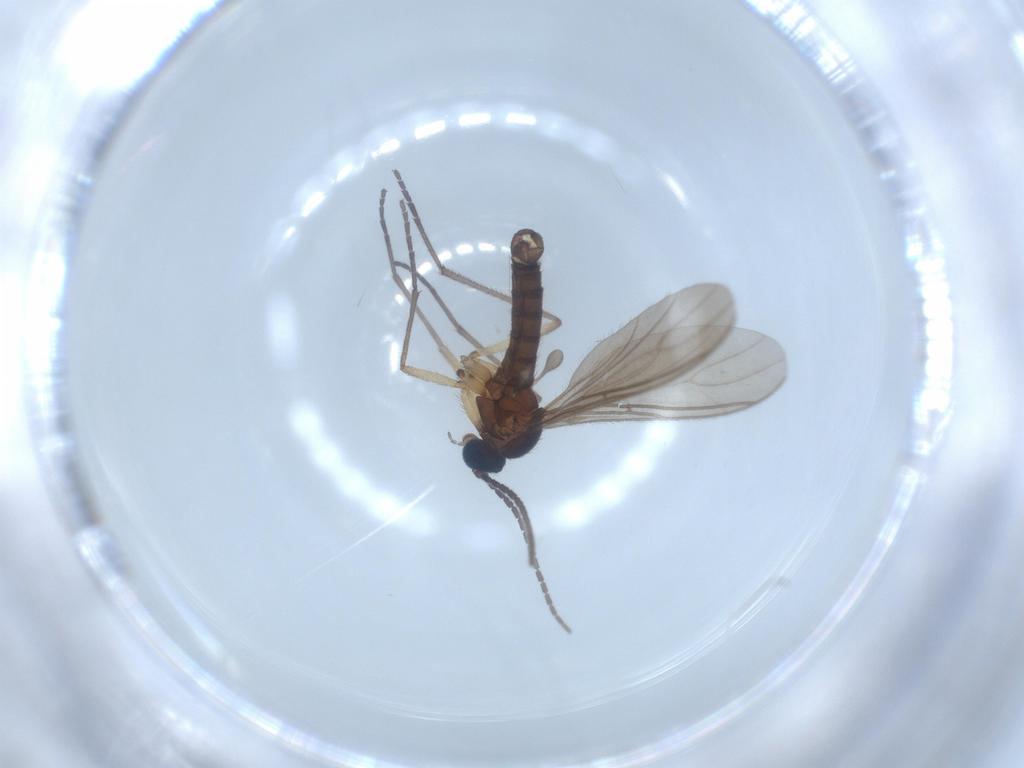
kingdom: Animalia
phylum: Arthropoda
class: Insecta
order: Diptera
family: Sciaridae
